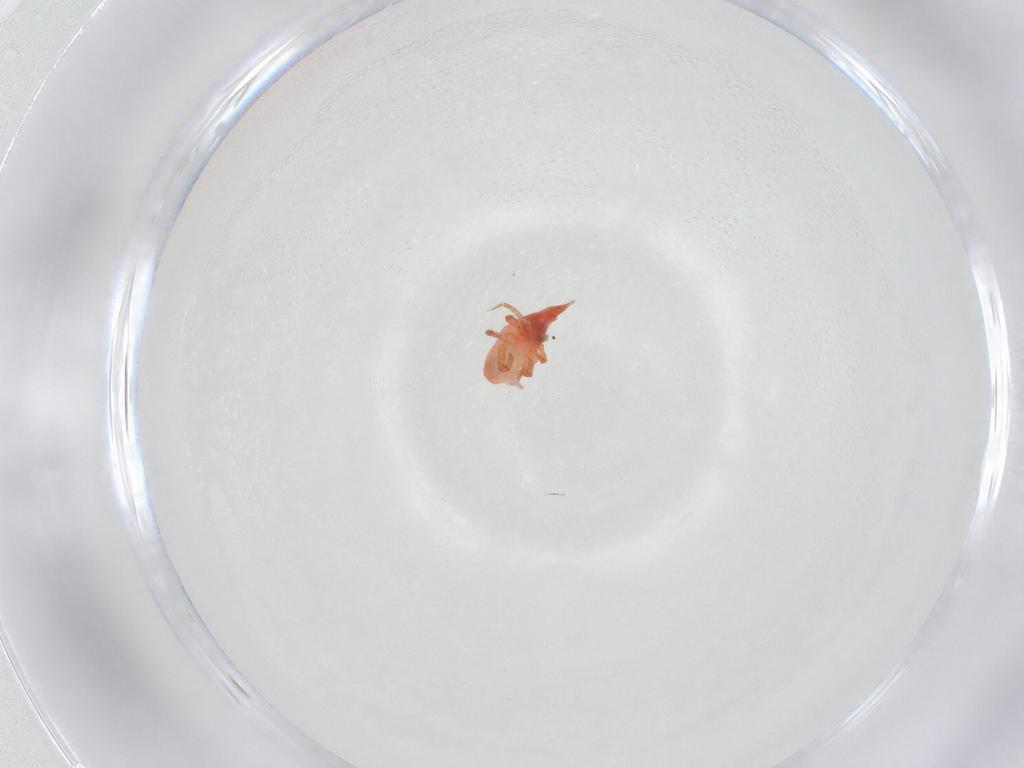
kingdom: Animalia
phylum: Arthropoda
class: Arachnida
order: Trombidiformes
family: Bdellidae
